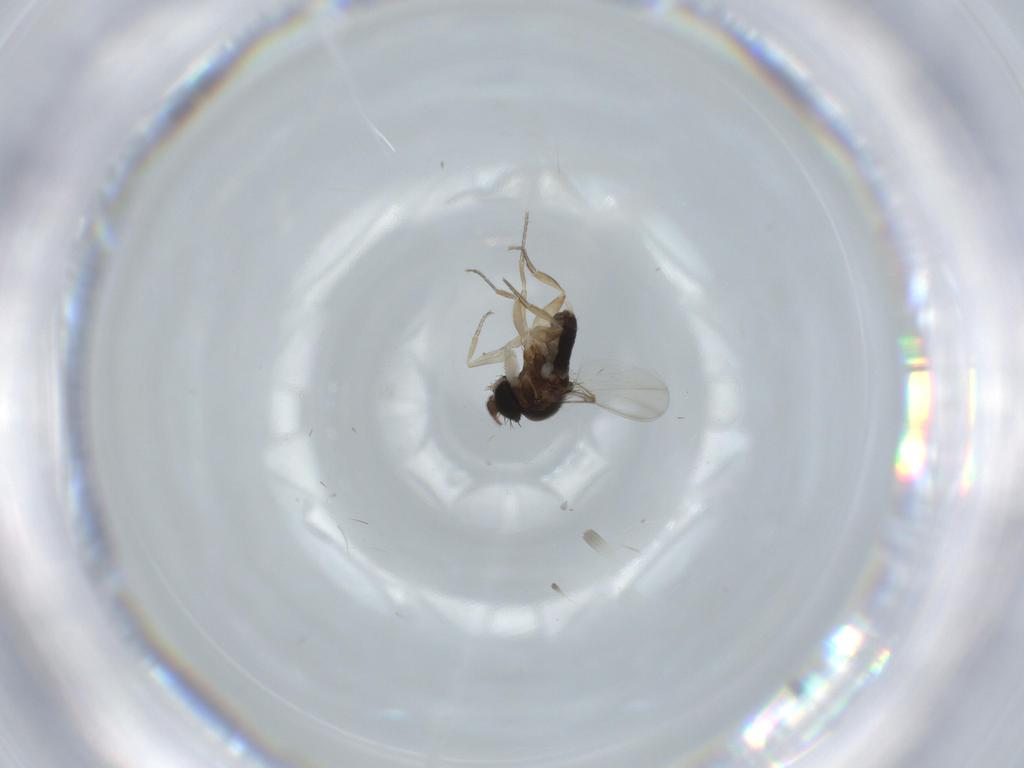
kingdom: Animalia
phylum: Arthropoda
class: Insecta
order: Diptera
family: Phoridae
